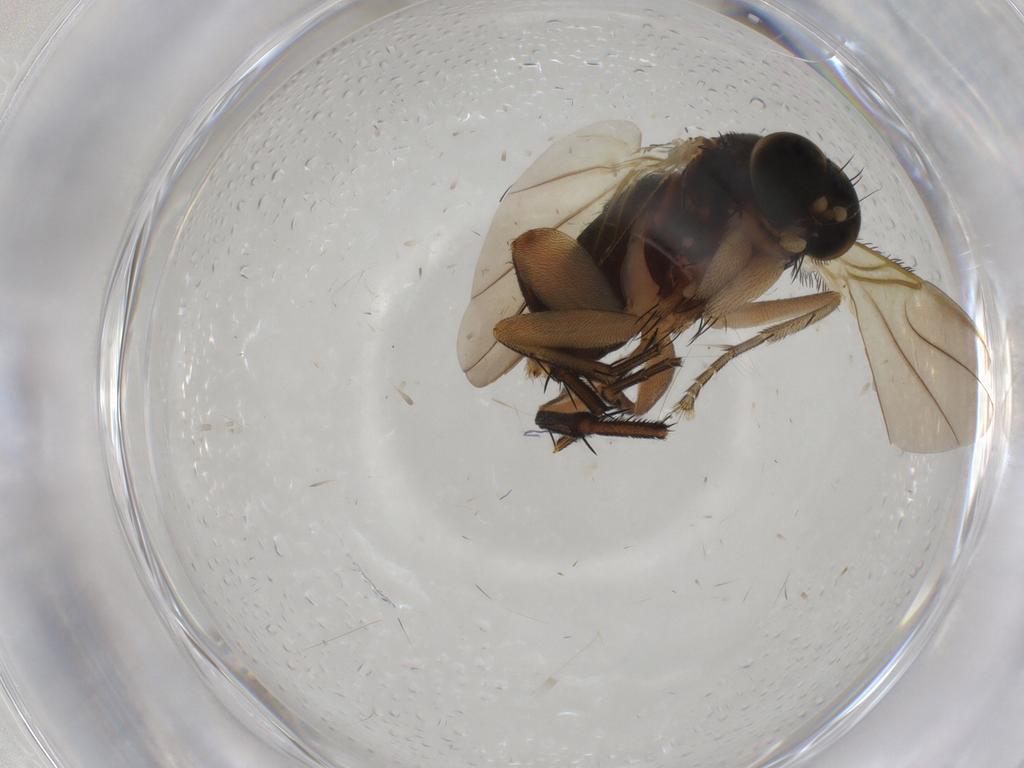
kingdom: Animalia
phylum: Arthropoda
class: Insecta
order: Diptera
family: Phoridae
